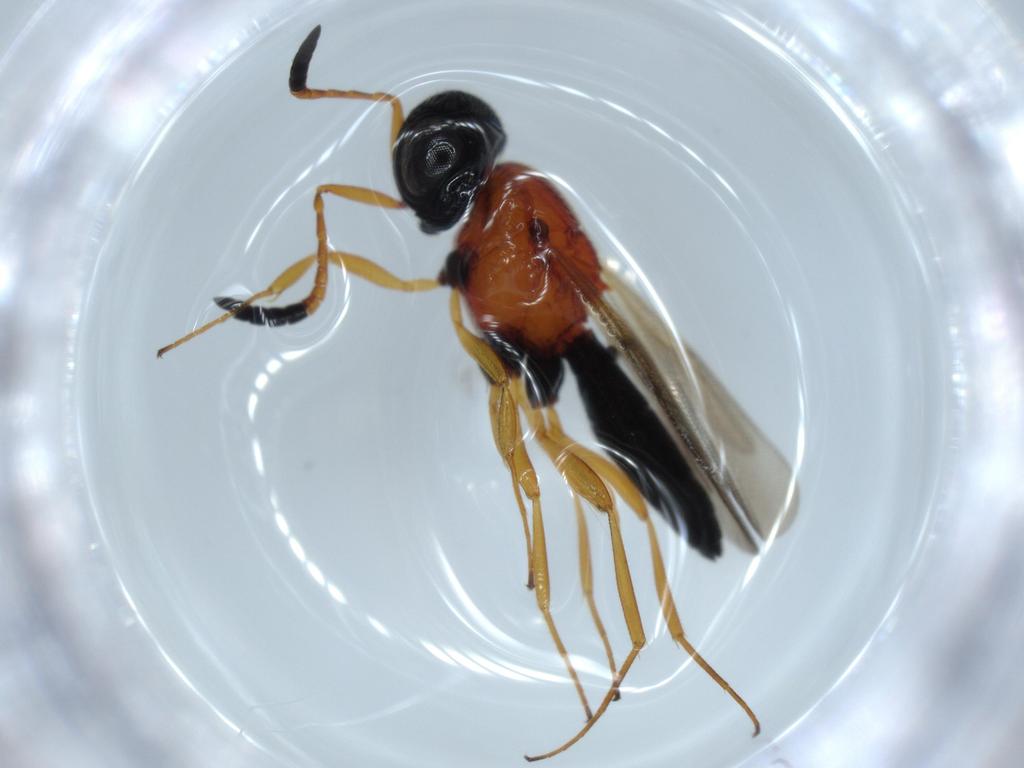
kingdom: Animalia
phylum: Arthropoda
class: Insecta
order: Hymenoptera
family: Scelionidae
